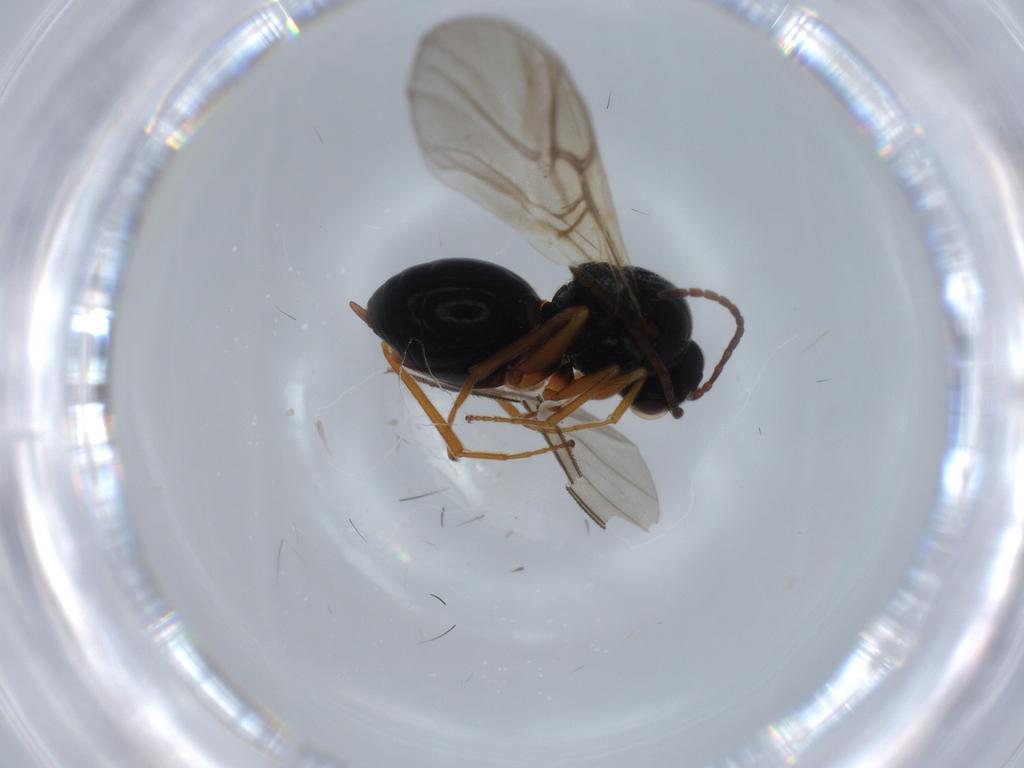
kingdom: Animalia
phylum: Arthropoda
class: Insecta
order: Hymenoptera
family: Cynipidae
